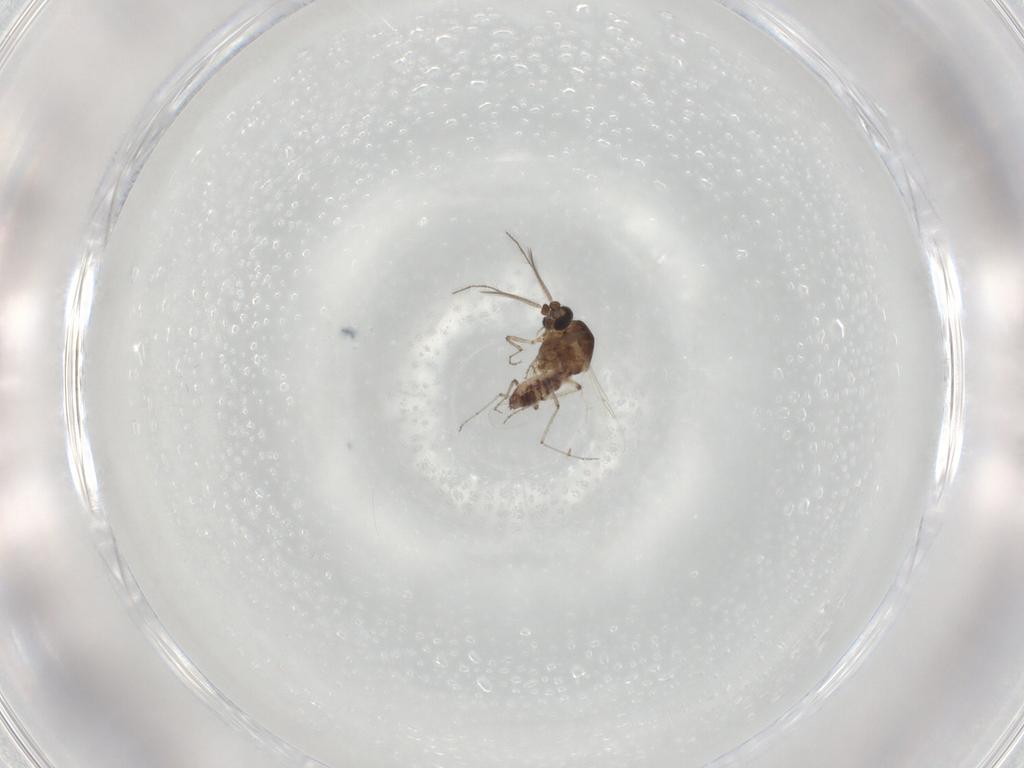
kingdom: Animalia
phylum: Arthropoda
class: Insecta
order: Diptera
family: Ceratopogonidae
